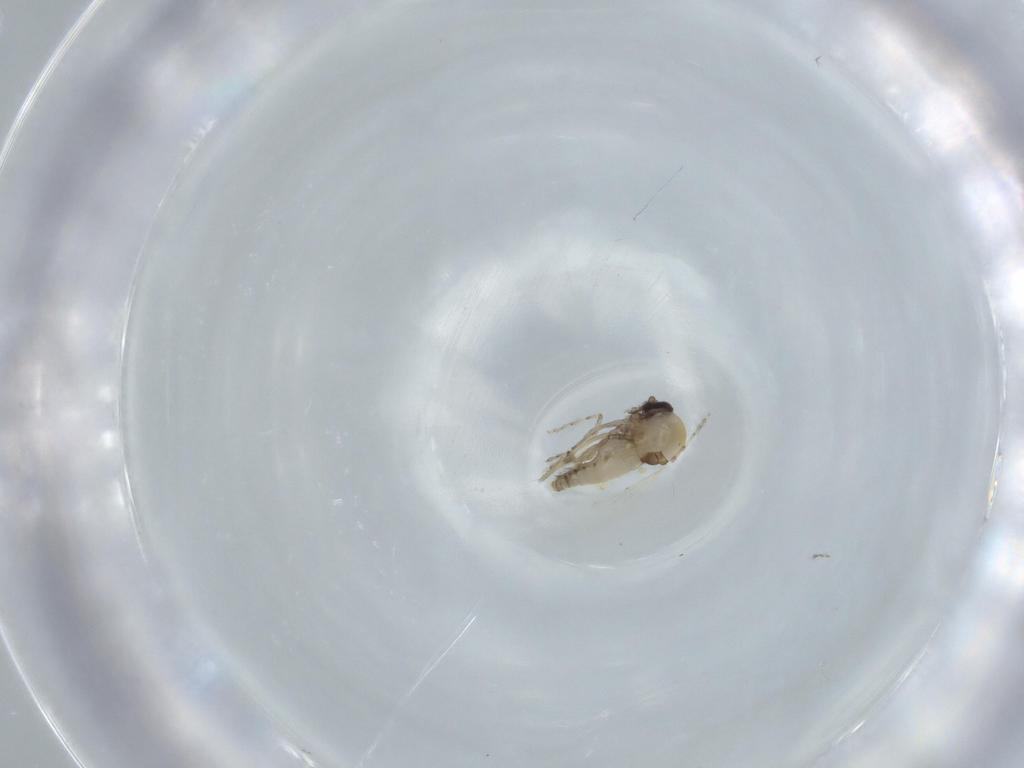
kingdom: Animalia
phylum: Arthropoda
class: Insecta
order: Diptera
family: Ceratopogonidae
